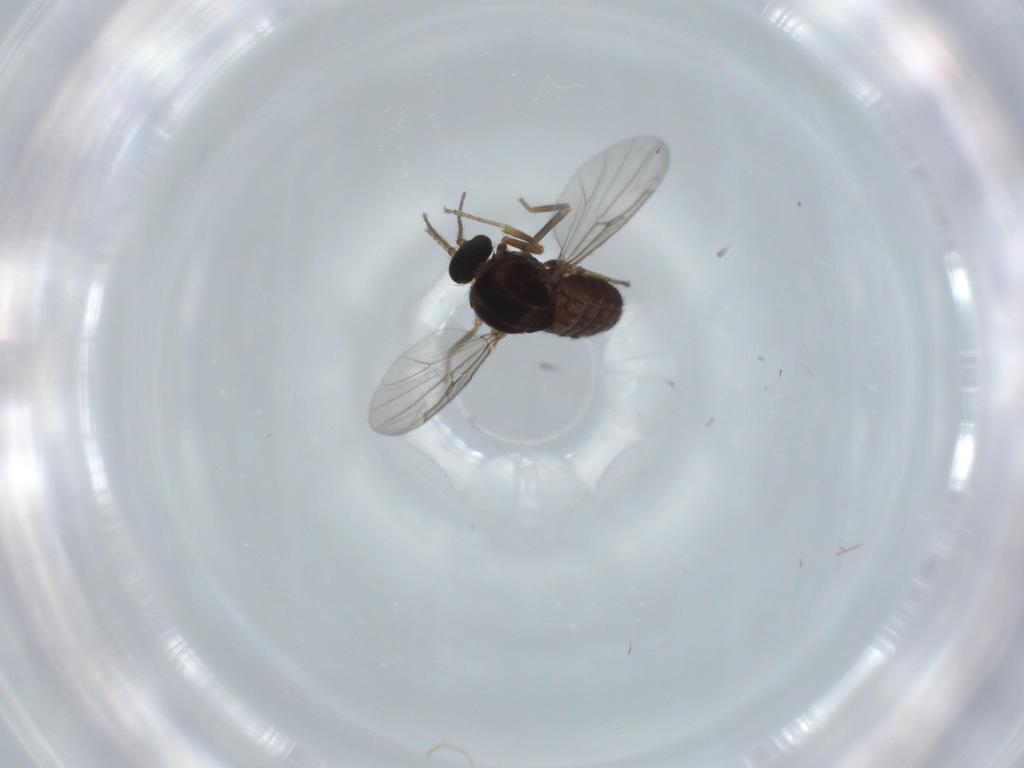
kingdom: Animalia
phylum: Arthropoda
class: Insecta
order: Diptera
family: Ceratopogonidae
